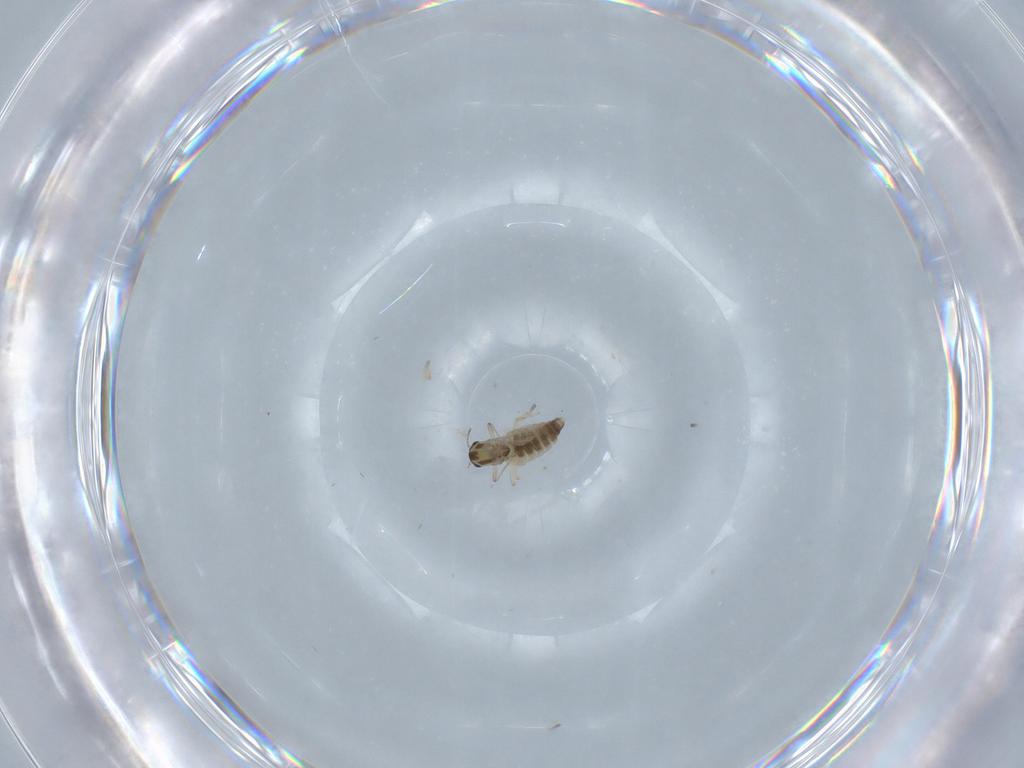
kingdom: Animalia
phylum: Arthropoda
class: Insecta
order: Diptera
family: Chironomidae
